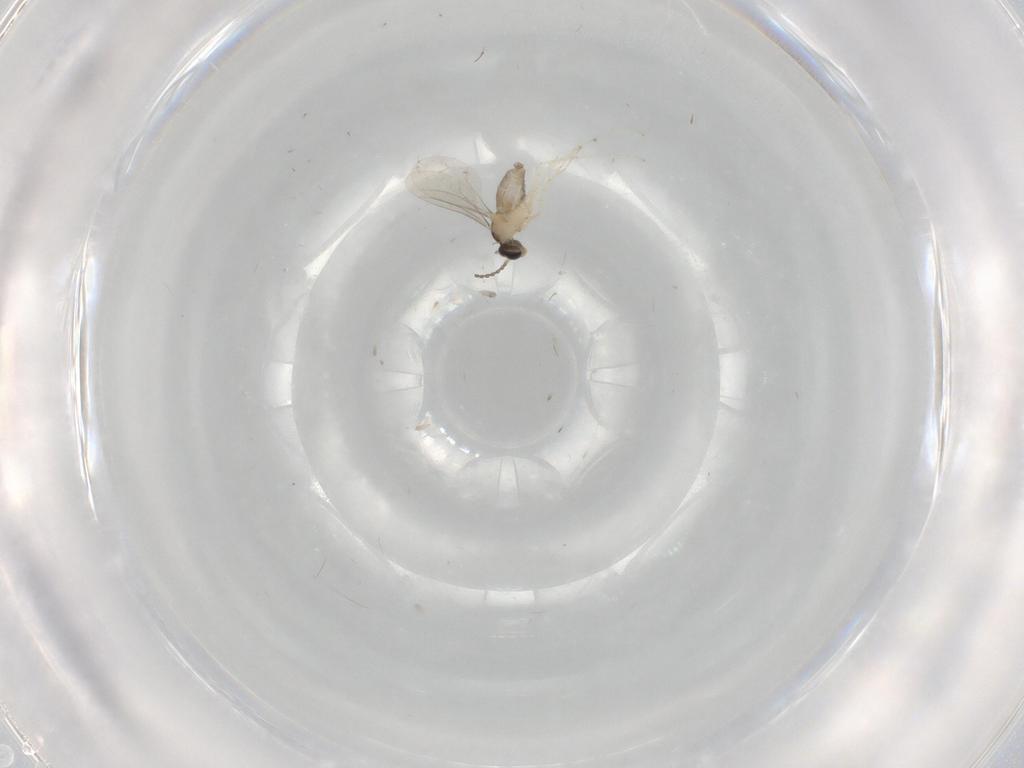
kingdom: Animalia
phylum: Arthropoda
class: Insecta
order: Diptera
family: Cecidomyiidae
